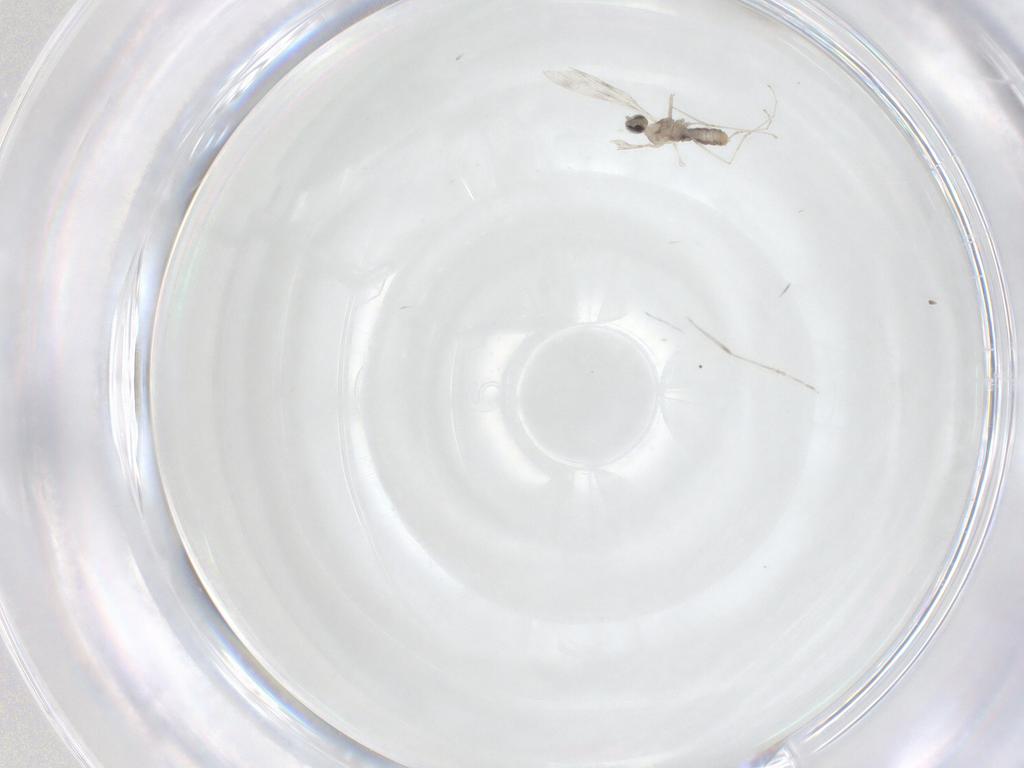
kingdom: Animalia
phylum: Arthropoda
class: Insecta
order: Diptera
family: Cecidomyiidae
